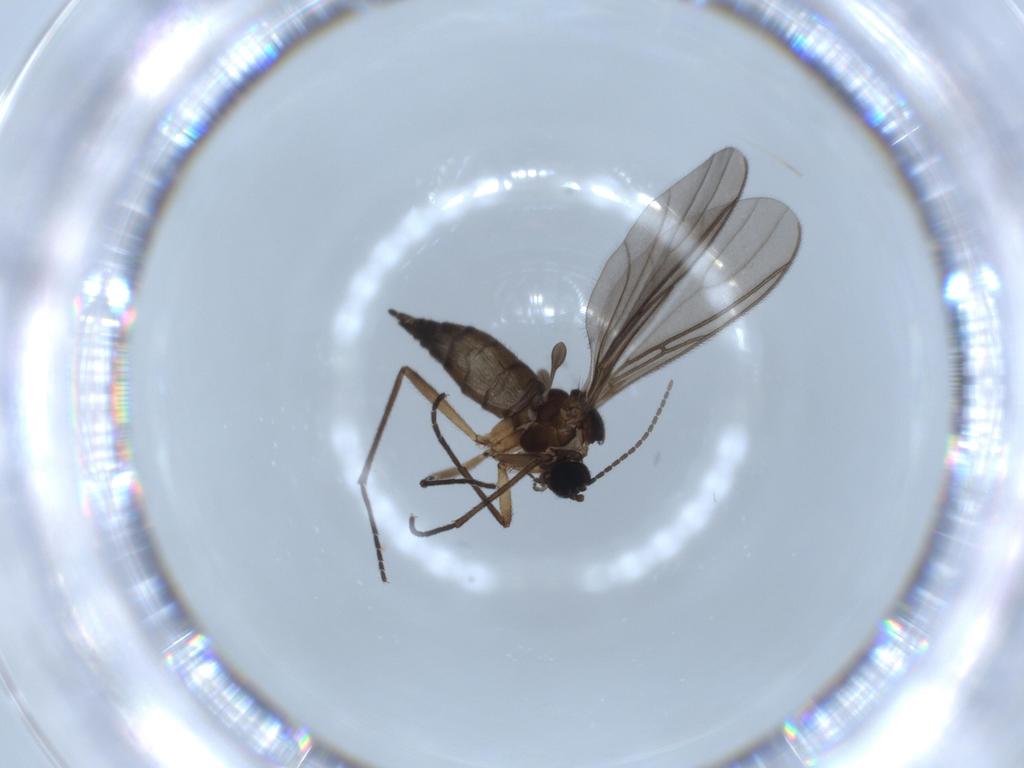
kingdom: Animalia
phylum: Arthropoda
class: Insecta
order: Diptera
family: Sciaridae
